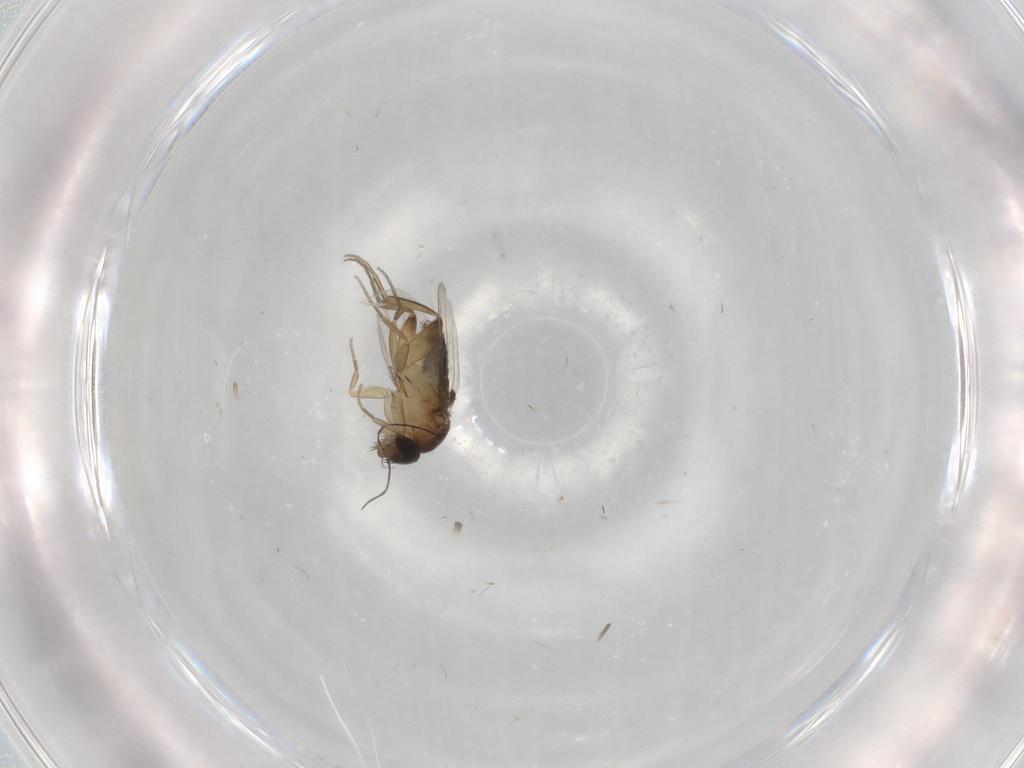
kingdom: Animalia
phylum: Arthropoda
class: Insecta
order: Diptera
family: Phoridae
